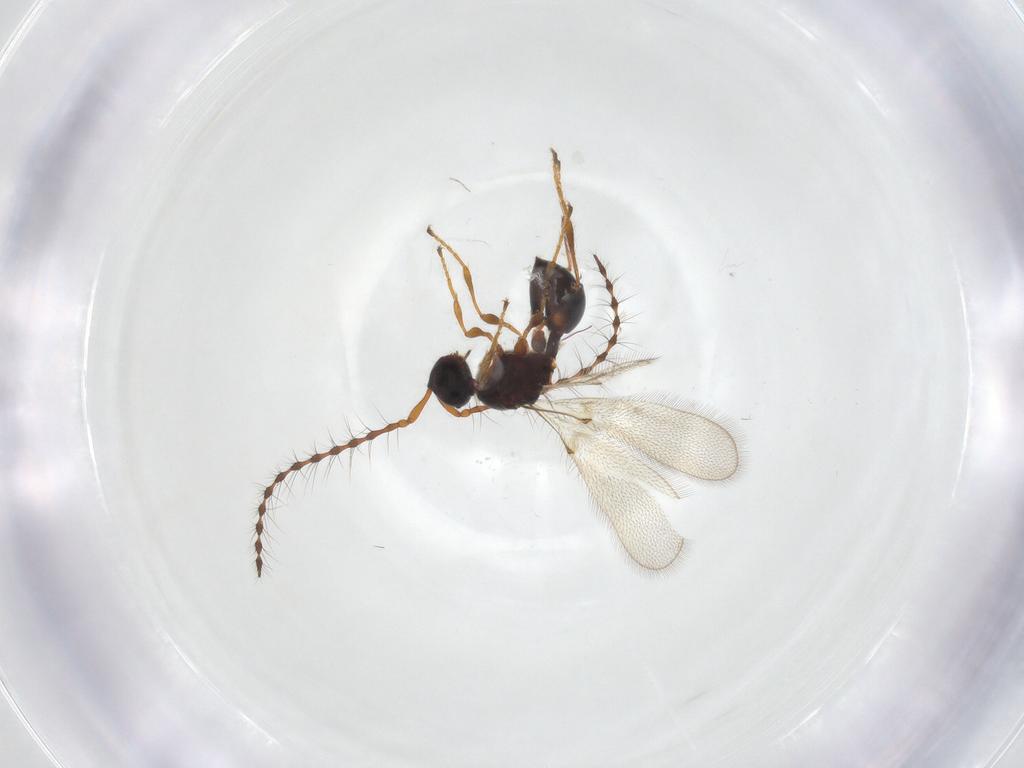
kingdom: Animalia
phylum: Arthropoda
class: Insecta
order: Hymenoptera
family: Diapriidae
